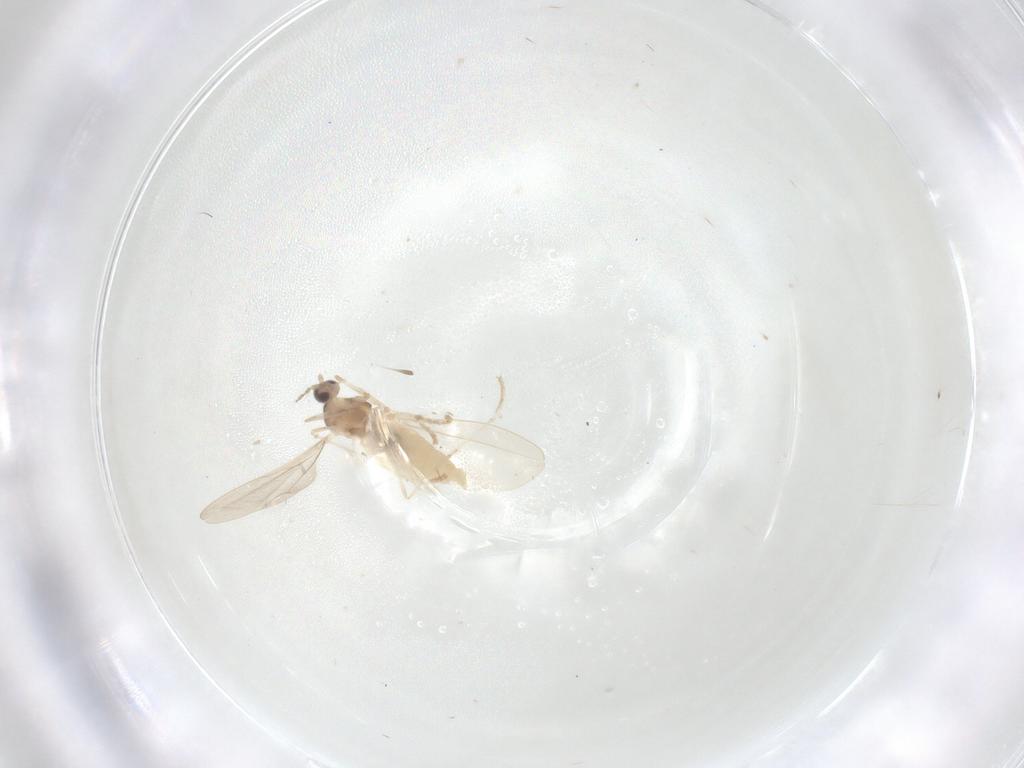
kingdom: Animalia
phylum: Arthropoda
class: Insecta
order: Diptera
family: Cecidomyiidae
